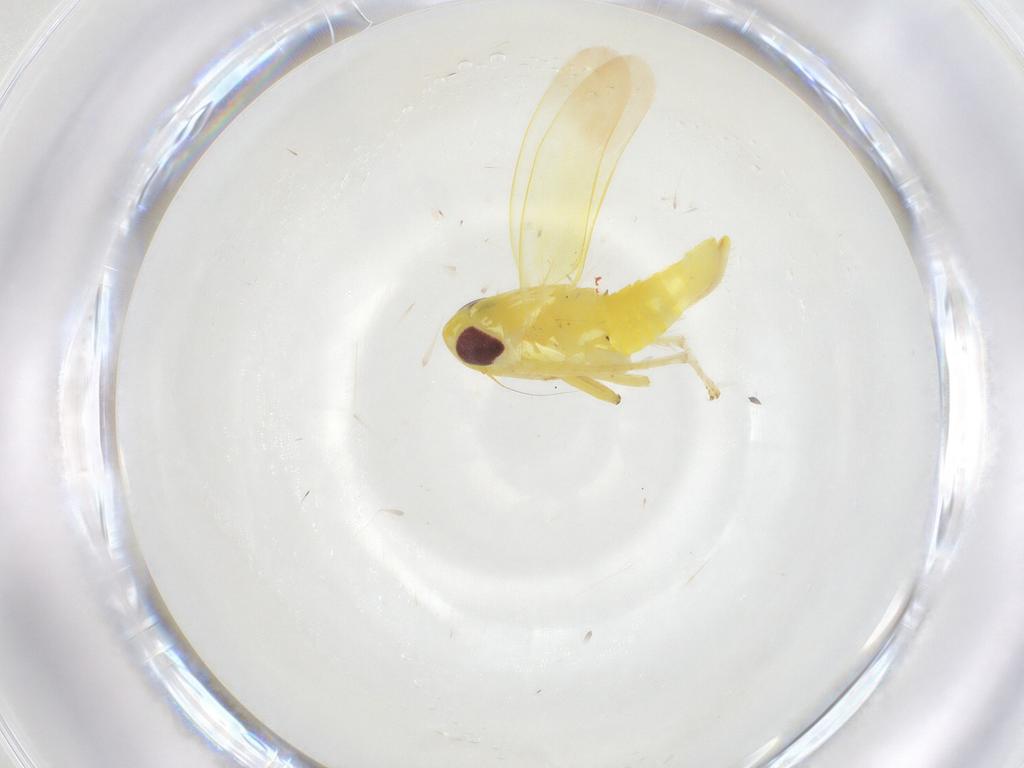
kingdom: Animalia
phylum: Arthropoda
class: Insecta
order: Hemiptera
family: Cicadellidae
